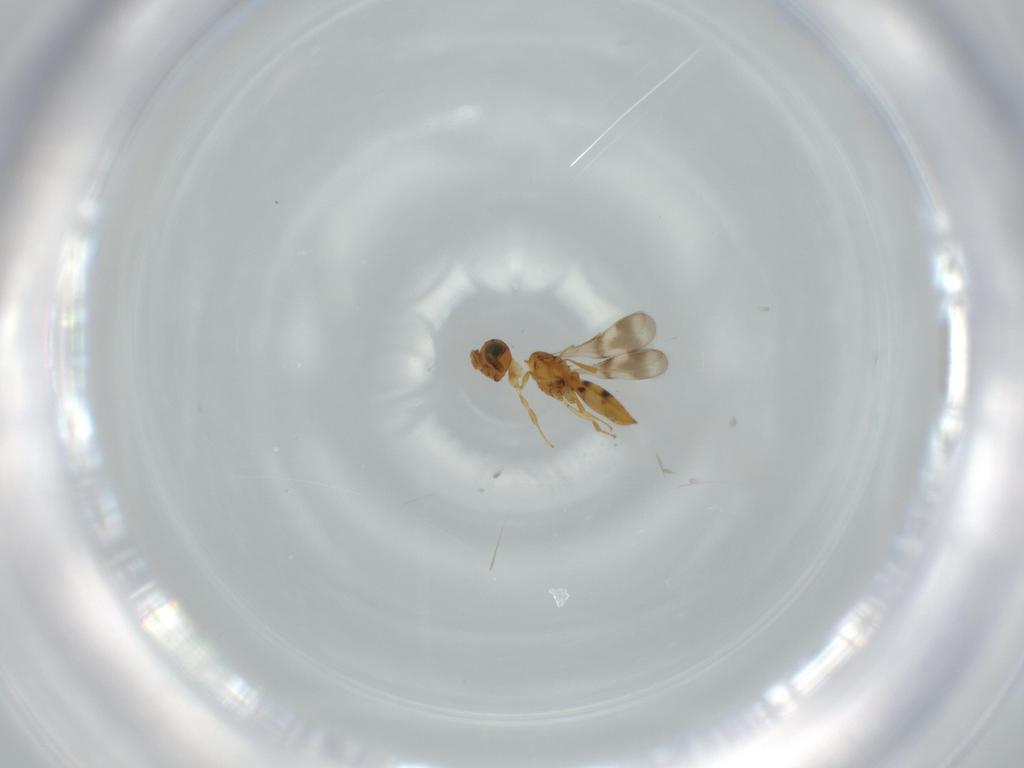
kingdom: Animalia
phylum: Arthropoda
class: Insecta
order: Hymenoptera
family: Scelionidae
